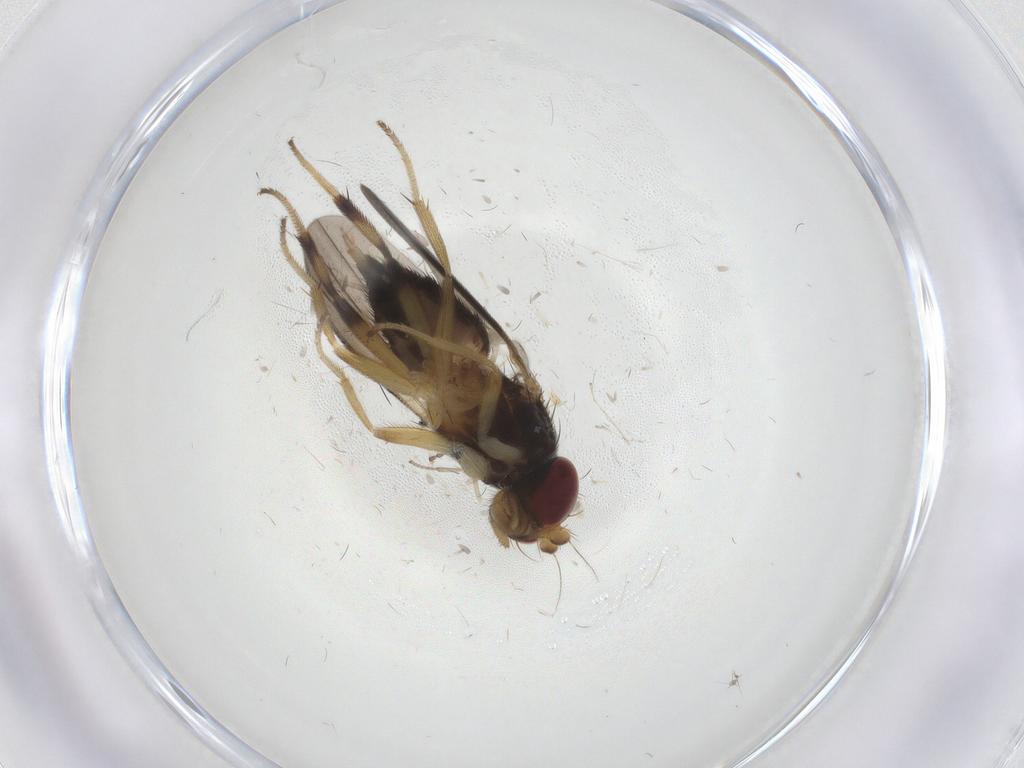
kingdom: Animalia
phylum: Arthropoda
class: Insecta
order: Diptera
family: Clusiidae
